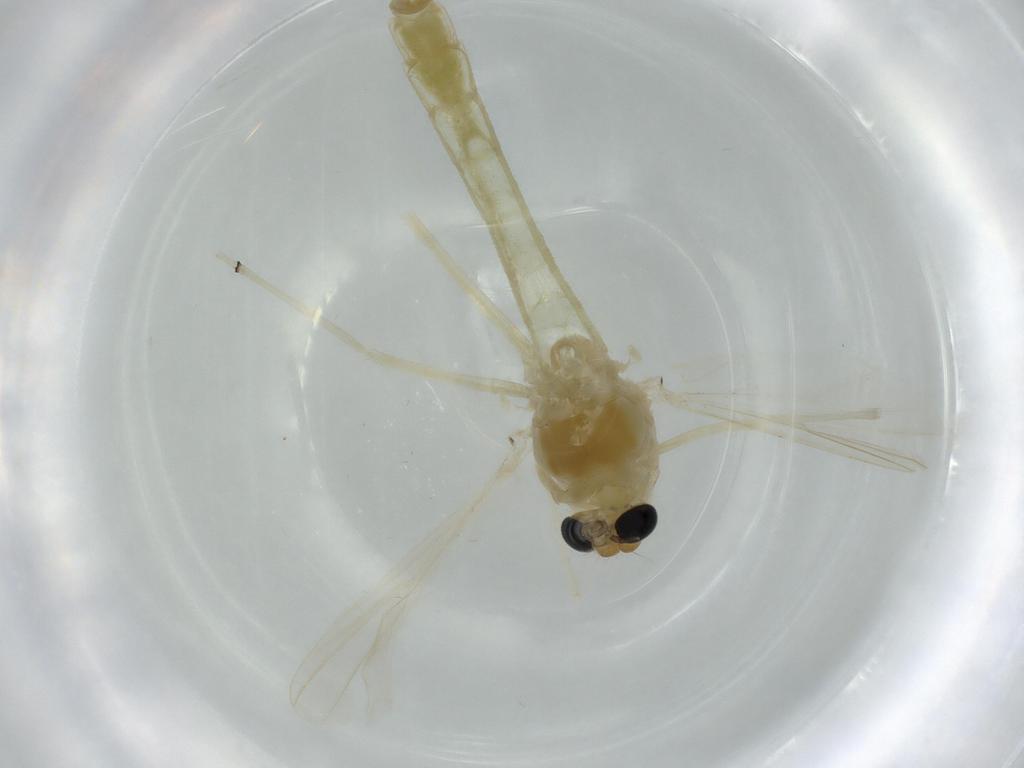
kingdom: Animalia
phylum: Arthropoda
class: Insecta
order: Diptera
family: Chironomidae
